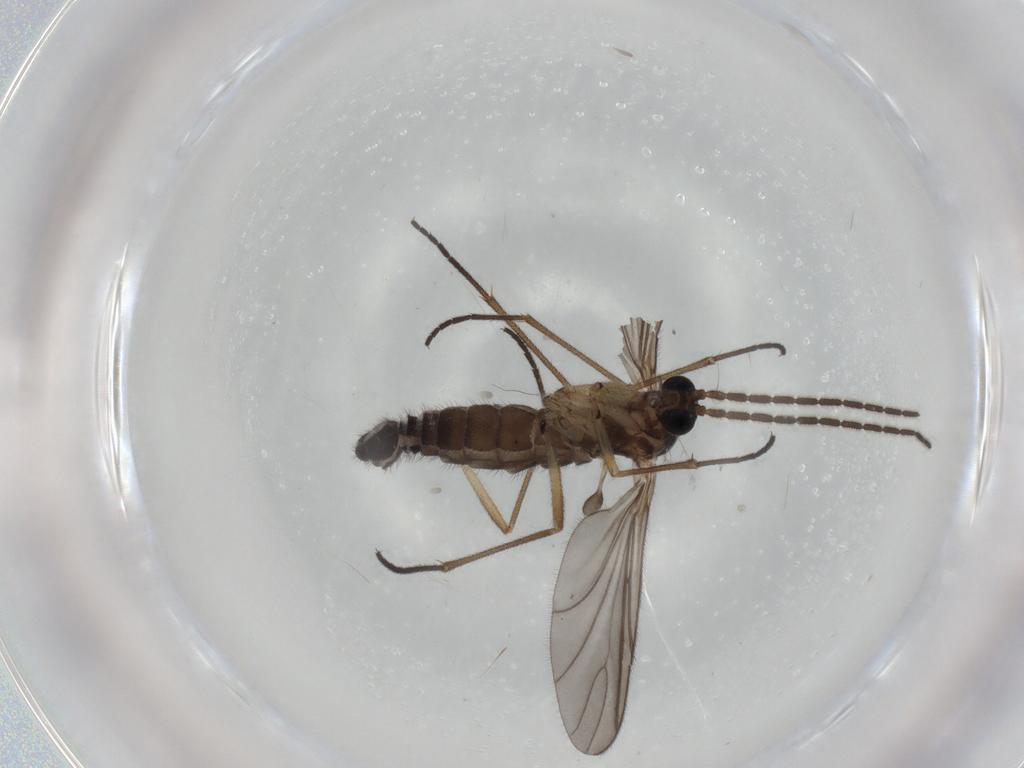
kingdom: Animalia
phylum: Arthropoda
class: Insecta
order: Diptera
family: Sciaridae
